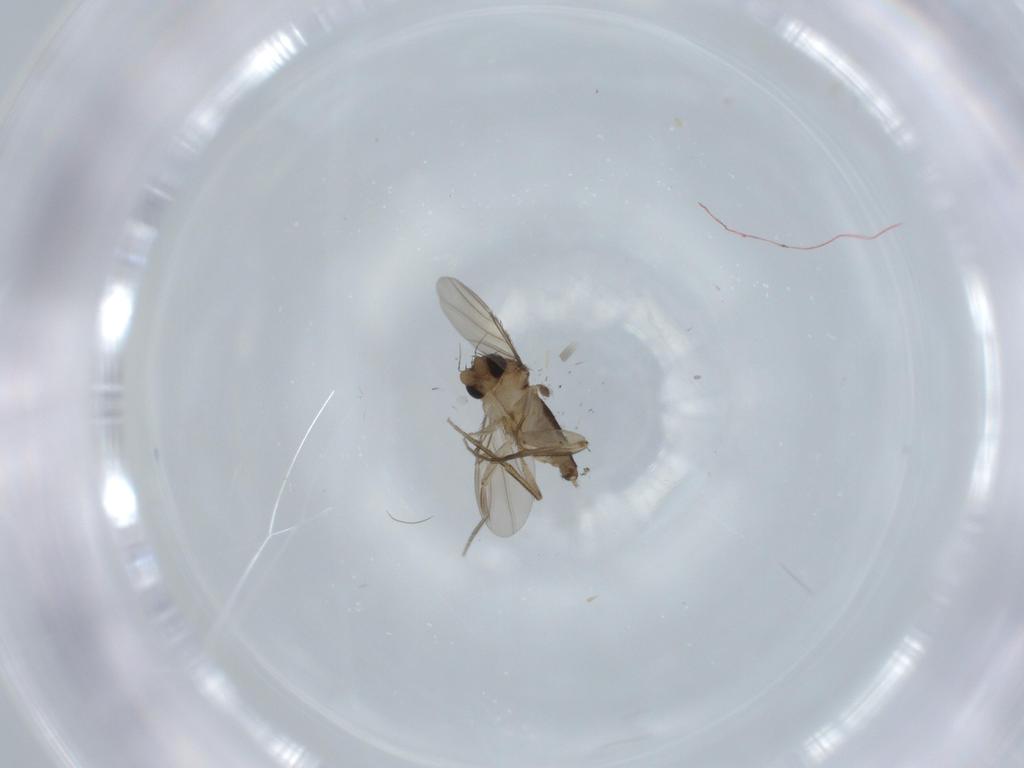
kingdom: Animalia
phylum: Arthropoda
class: Insecta
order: Diptera
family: Phoridae
